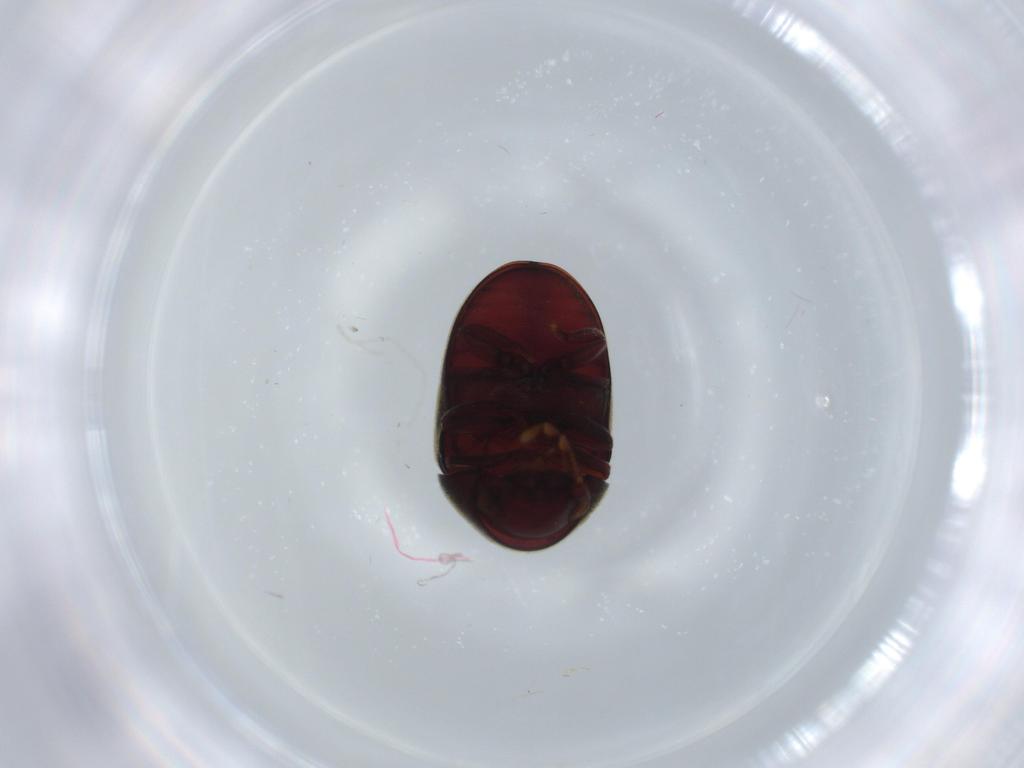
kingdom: Animalia
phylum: Arthropoda
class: Insecta
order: Coleoptera
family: Ptinidae
